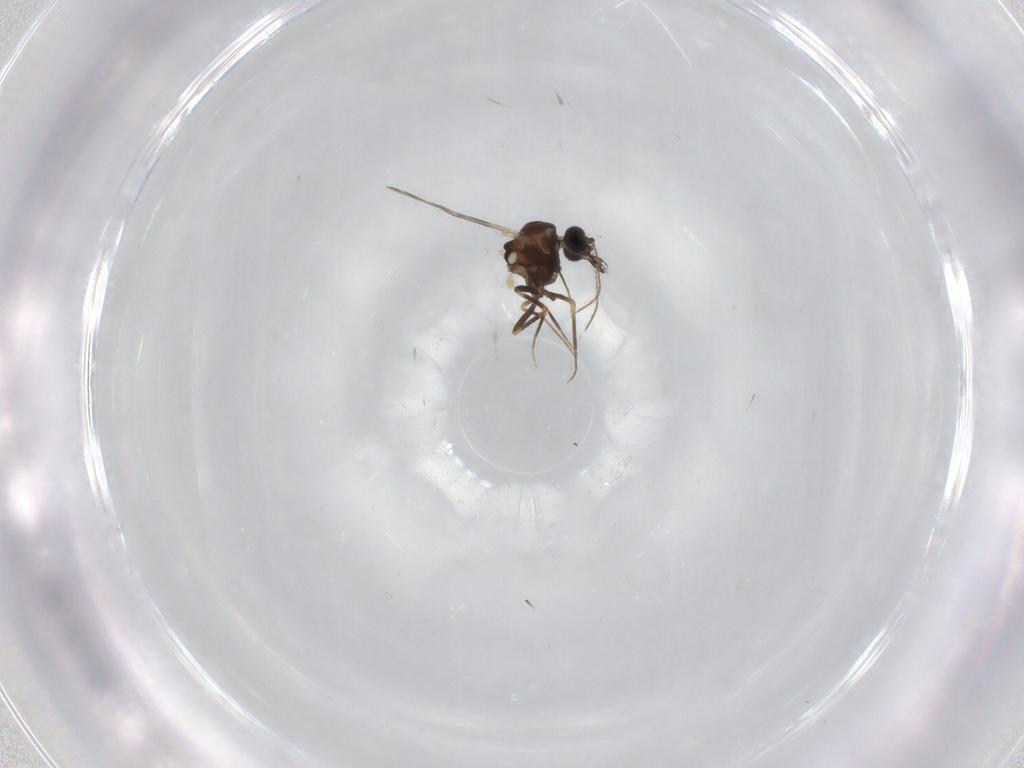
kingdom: Animalia
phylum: Arthropoda
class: Insecta
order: Diptera
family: Ceratopogonidae
